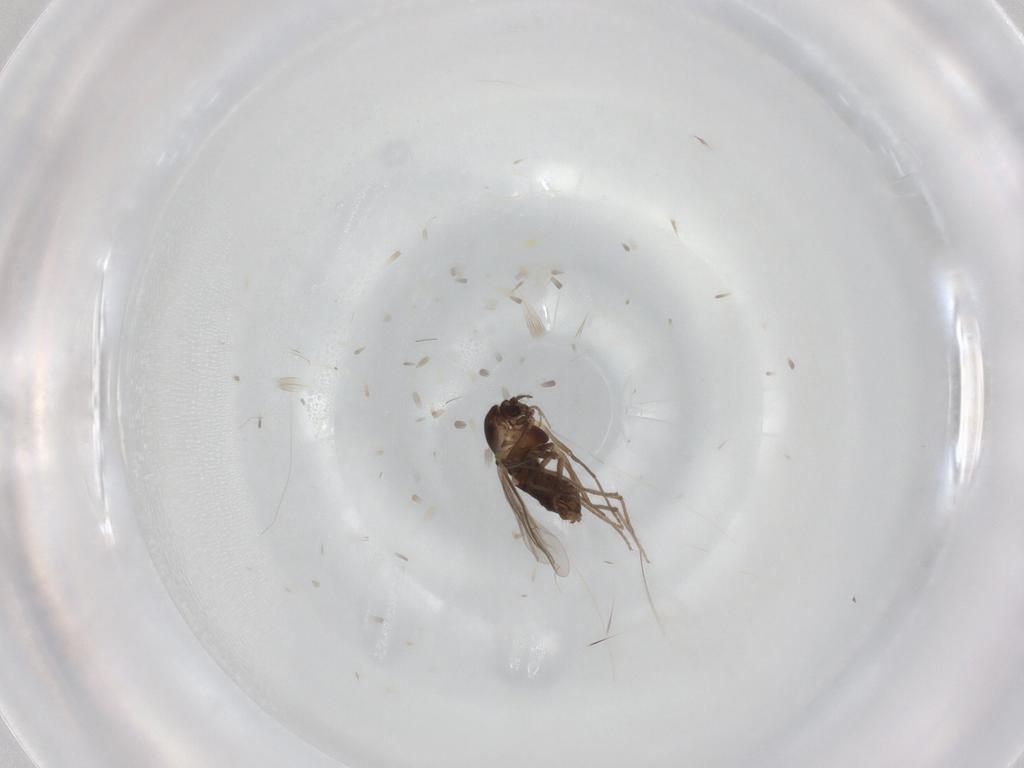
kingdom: Animalia
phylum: Arthropoda
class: Insecta
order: Diptera
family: Chironomidae
